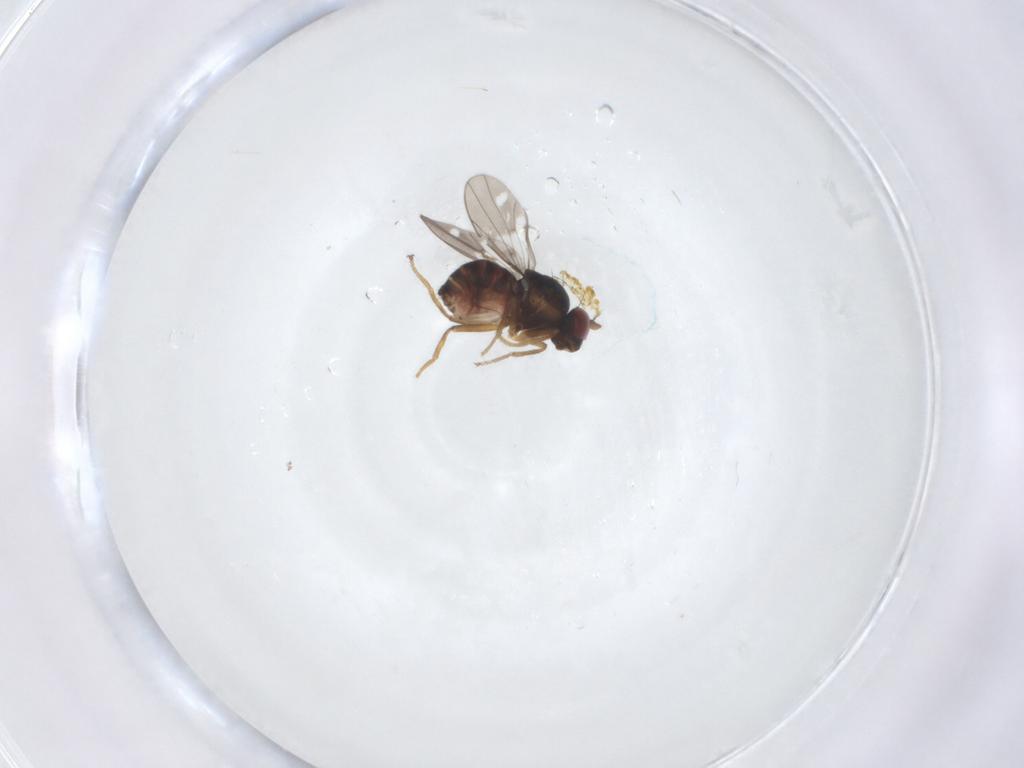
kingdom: Animalia
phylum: Arthropoda
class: Insecta
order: Diptera
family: Ephydridae
